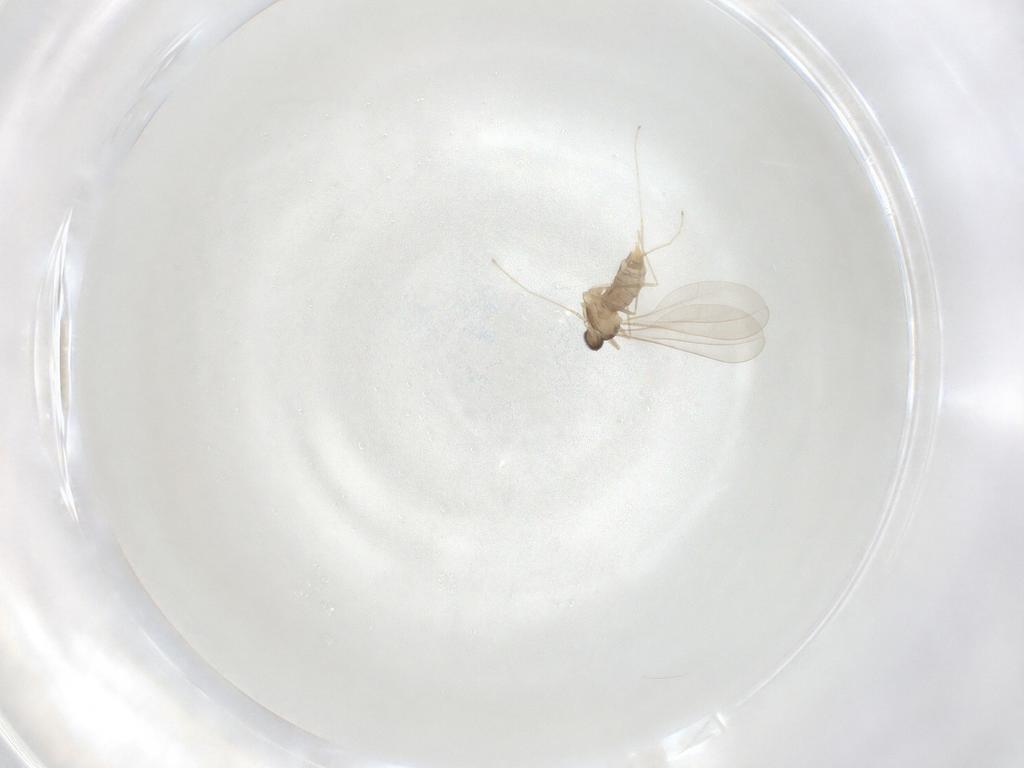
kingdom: Animalia
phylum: Arthropoda
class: Insecta
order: Diptera
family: Cecidomyiidae
